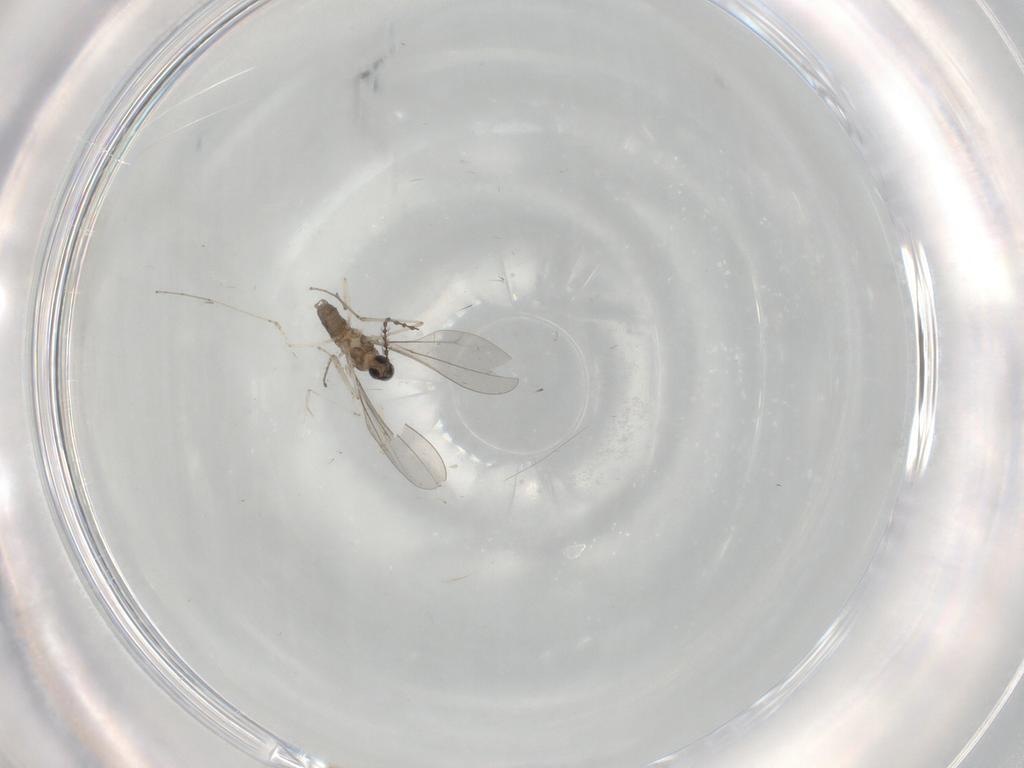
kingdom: Animalia
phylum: Arthropoda
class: Insecta
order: Diptera
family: Cecidomyiidae
